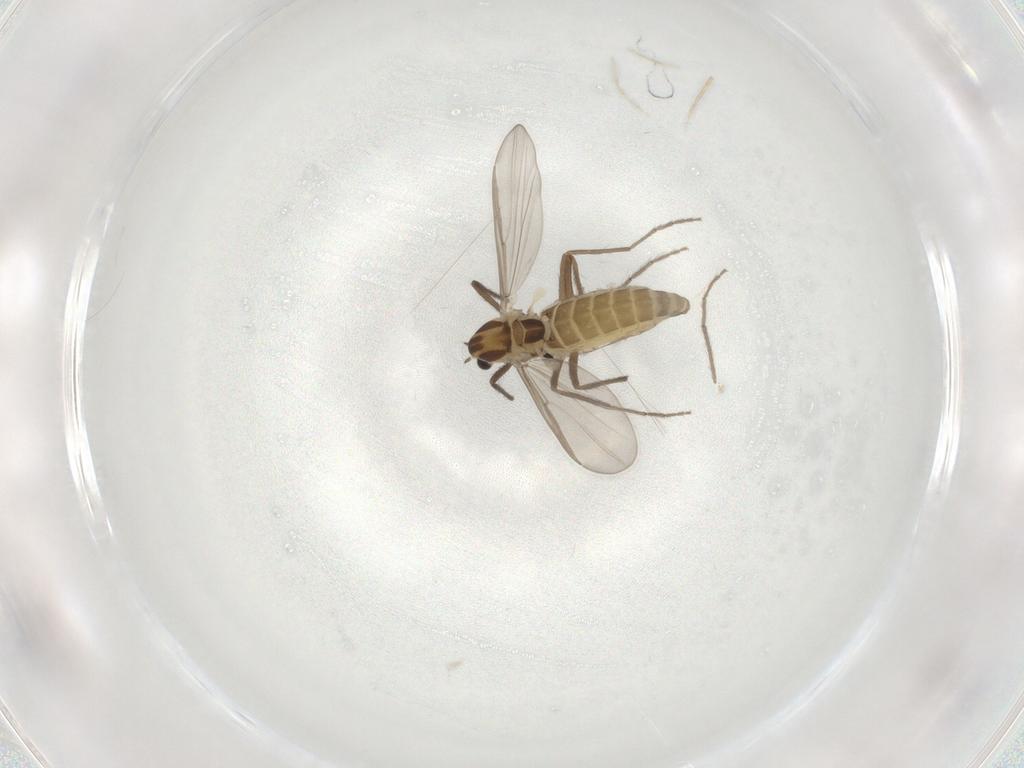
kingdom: Animalia
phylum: Arthropoda
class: Insecta
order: Diptera
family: Chironomidae
